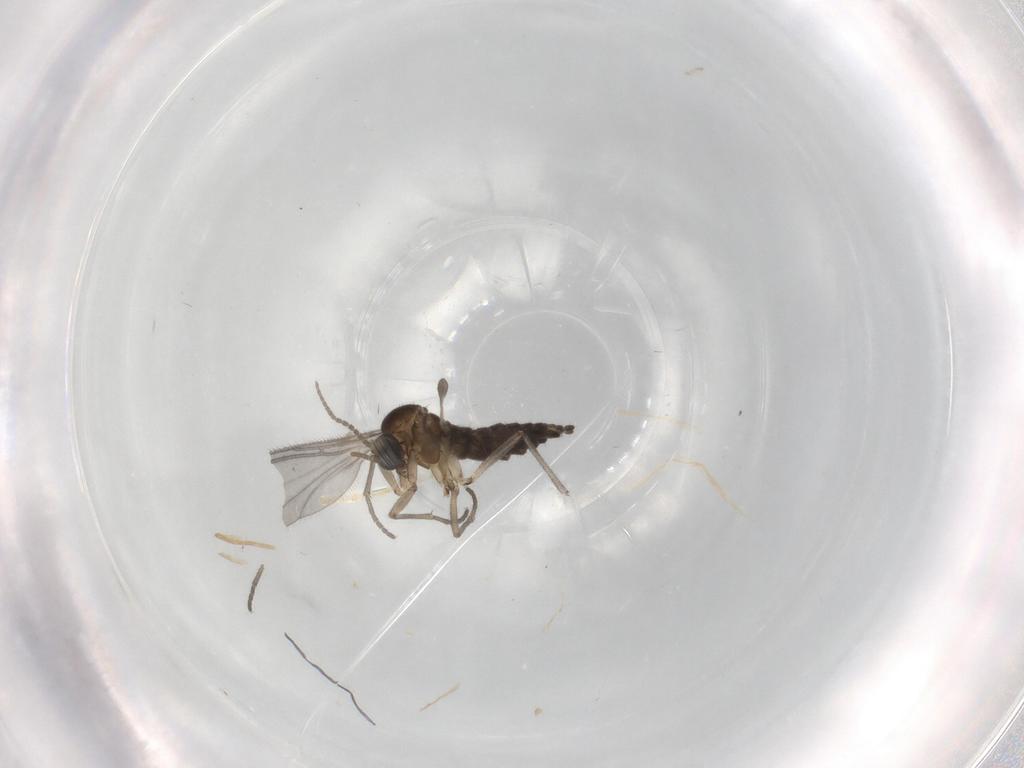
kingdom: Animalia
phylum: Arthropoda
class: Insecta
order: Diptera
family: Sciaridae
